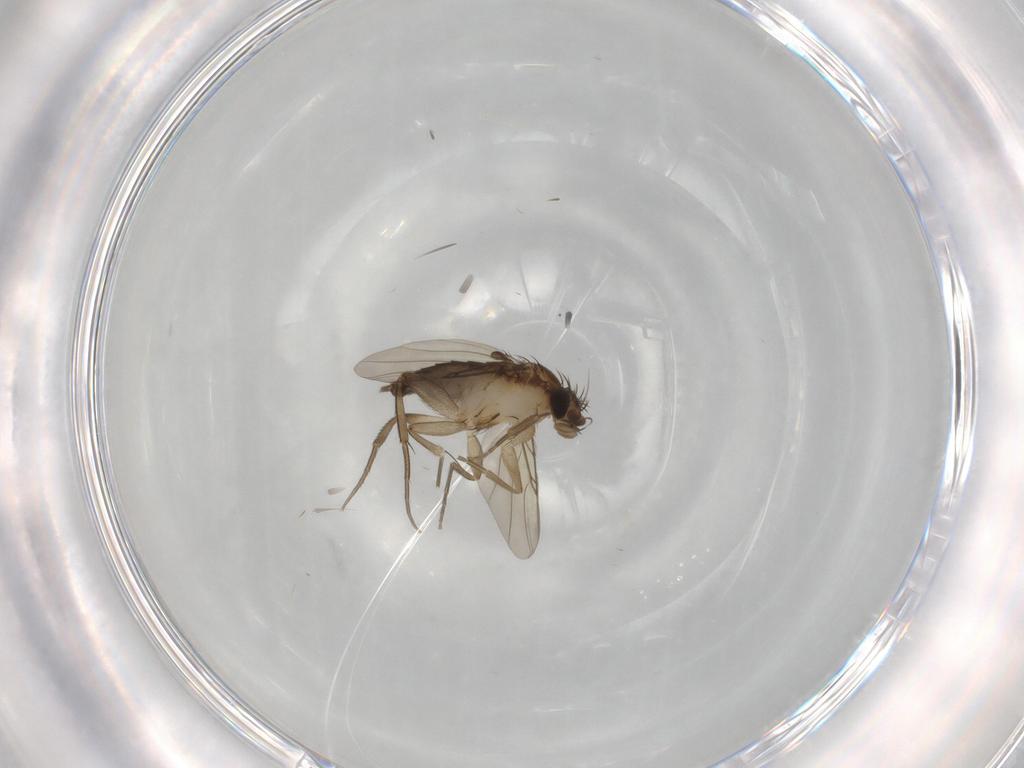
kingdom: Animalia
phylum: Arthropoda
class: Insecta
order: Diptera
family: Phoridae
